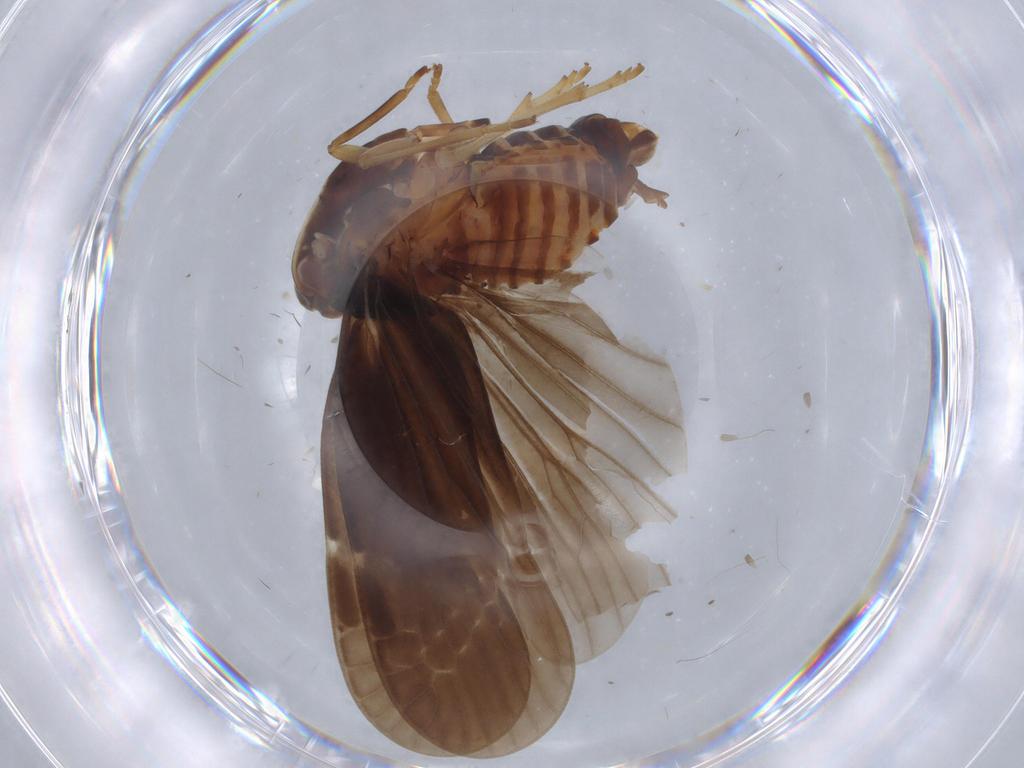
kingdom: Animalia
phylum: Arthropoda
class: Insecta
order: Hemiptera
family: Derbidae
